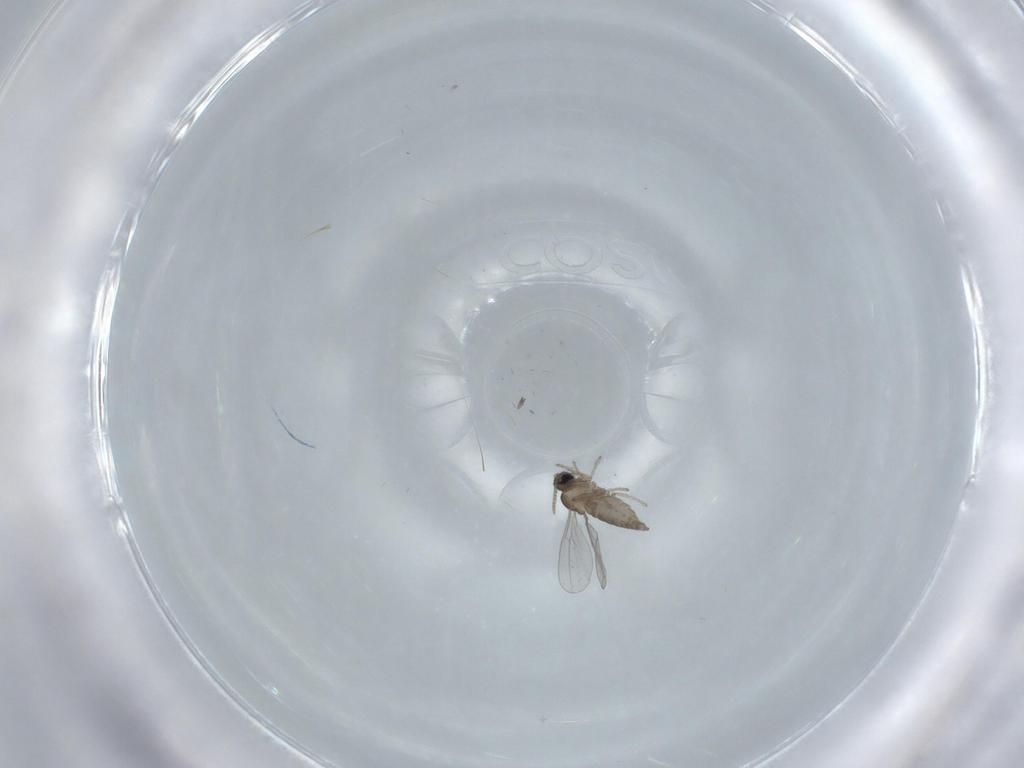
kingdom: Animalia
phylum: Arthropoda
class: Insecta
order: Diptera
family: Cecidomyiidae
